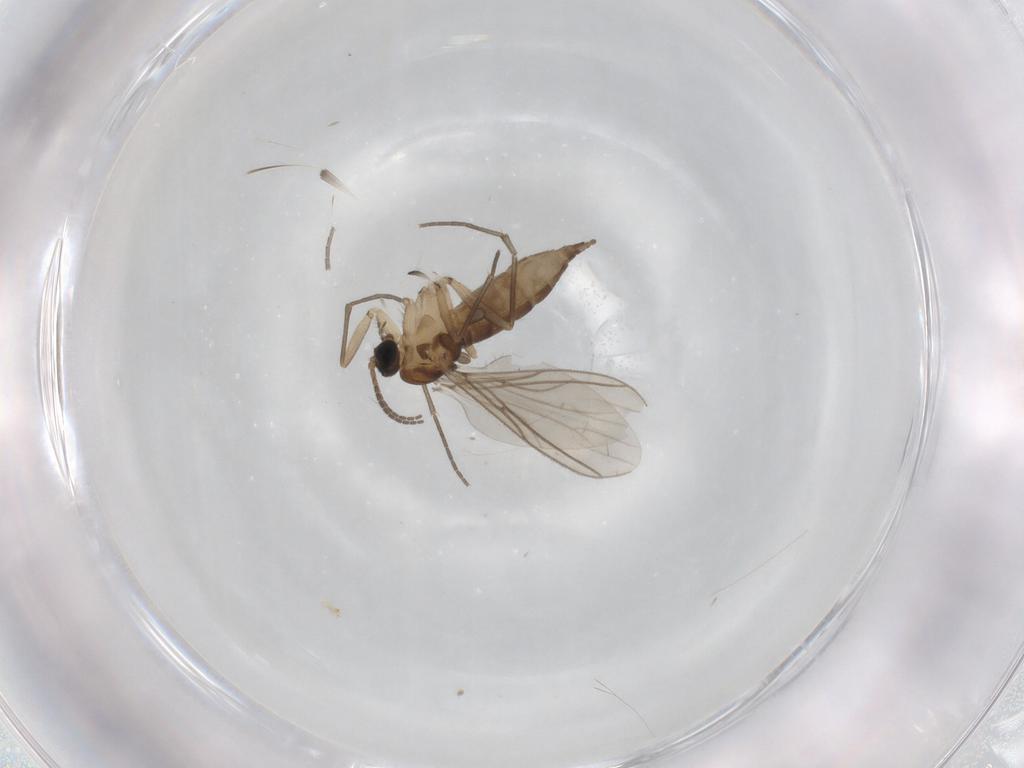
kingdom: Animalia
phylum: Arthropoda
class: Insecta
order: Diptera
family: Sciaridae
